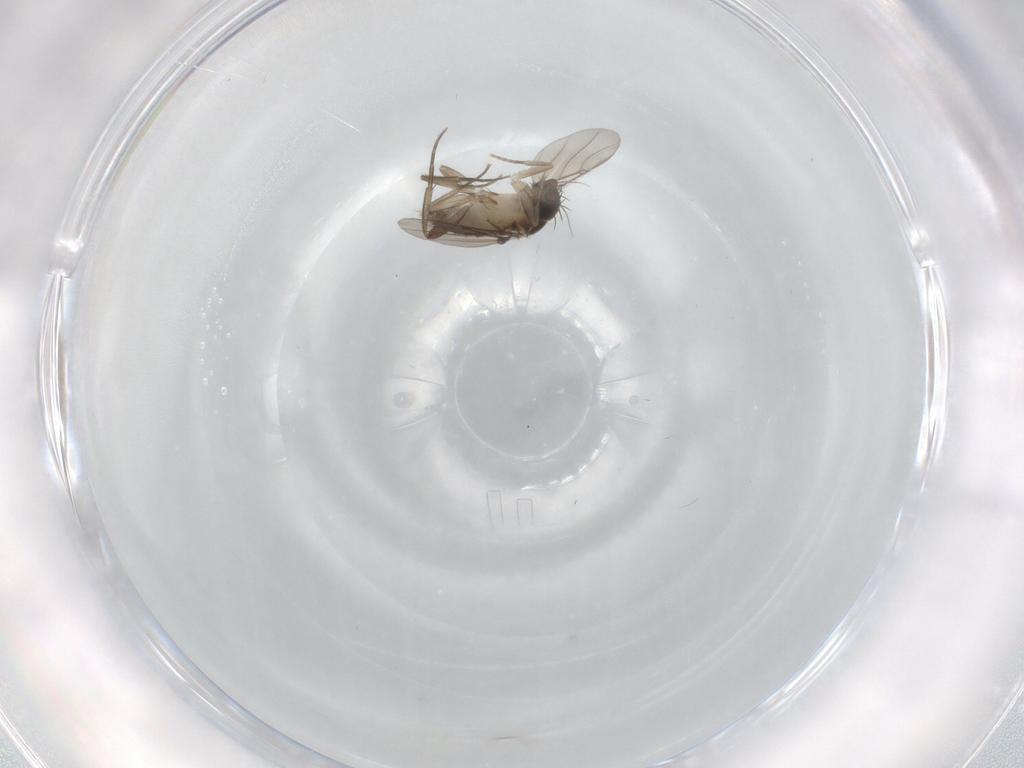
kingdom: Animalia
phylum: Arthropoda
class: Insecta
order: Diptera
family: Phoridae
